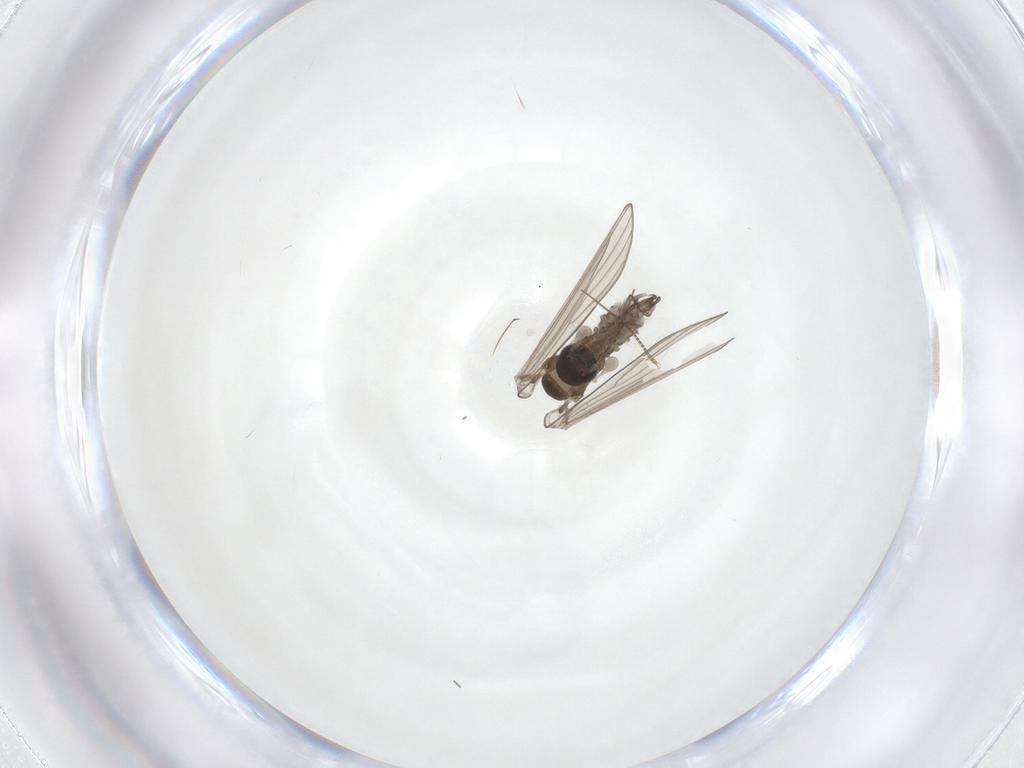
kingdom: Animalia
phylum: Arthropoda
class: Insecta
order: Diptera
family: Psychodidae
